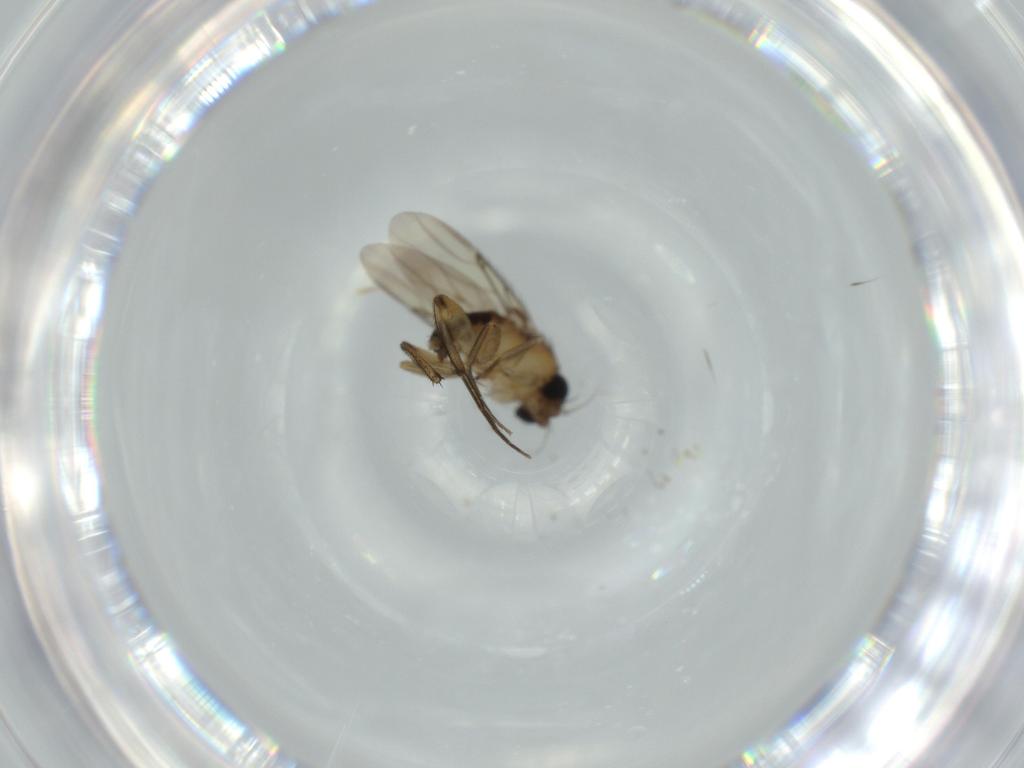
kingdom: Animalia
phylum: Arthropoda
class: Insecta
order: Diptera
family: Phoridae
